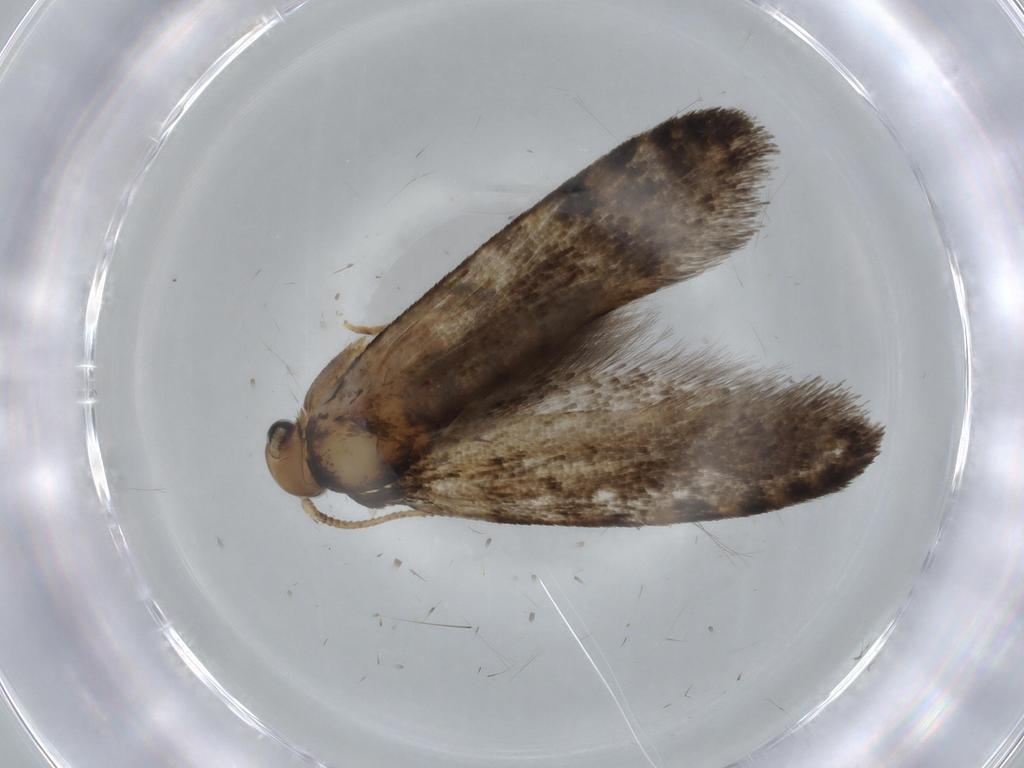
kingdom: Animalia
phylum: Arthropoda
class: Insecta
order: Lepidoptera
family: Tineidae
